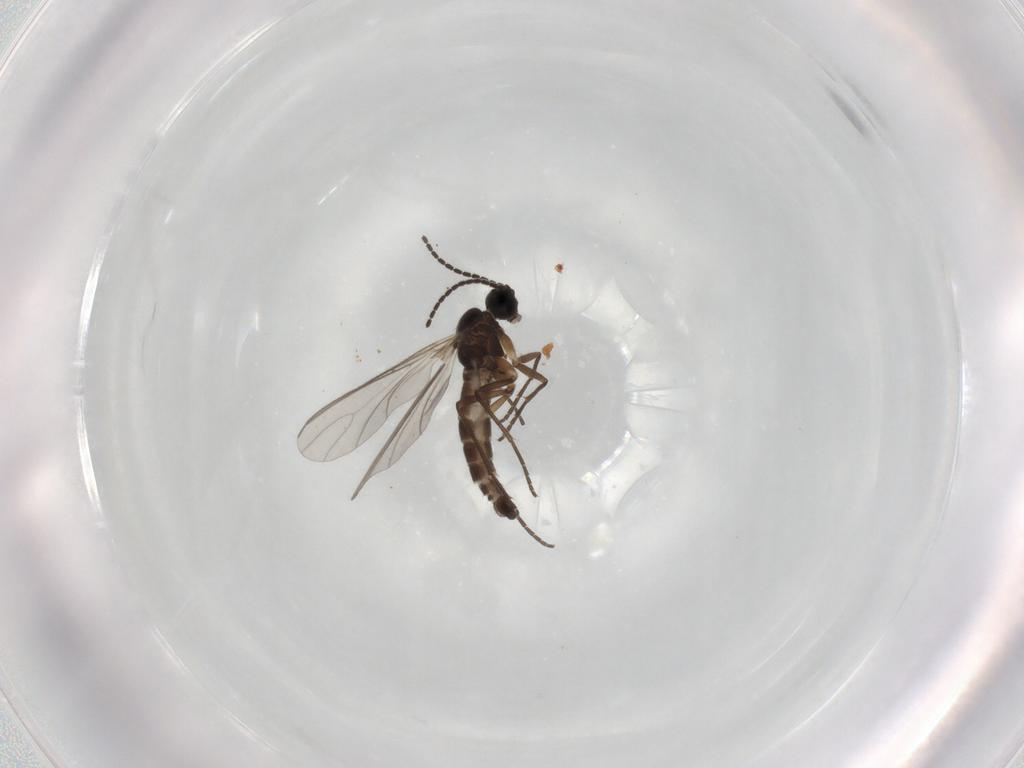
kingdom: Animalia
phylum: Arthropoda
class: Insecta
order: Diptera
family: Sciaridae
